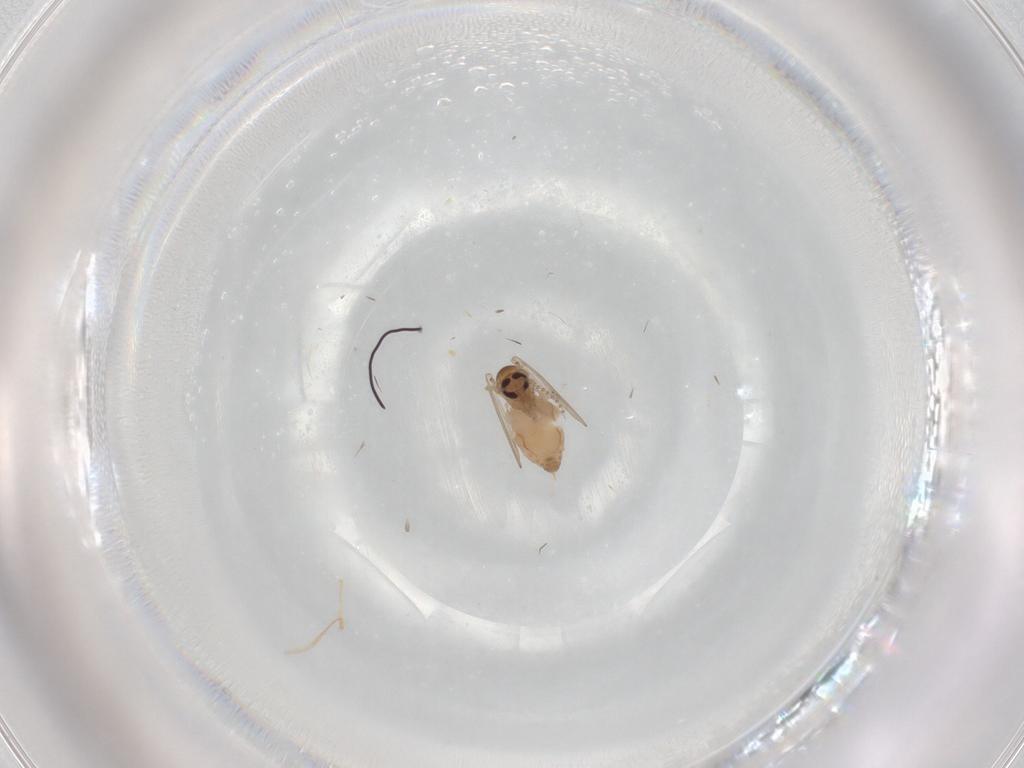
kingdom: Animalia
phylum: Arthropoda
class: Insecta
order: Diptera
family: Psychodidae
